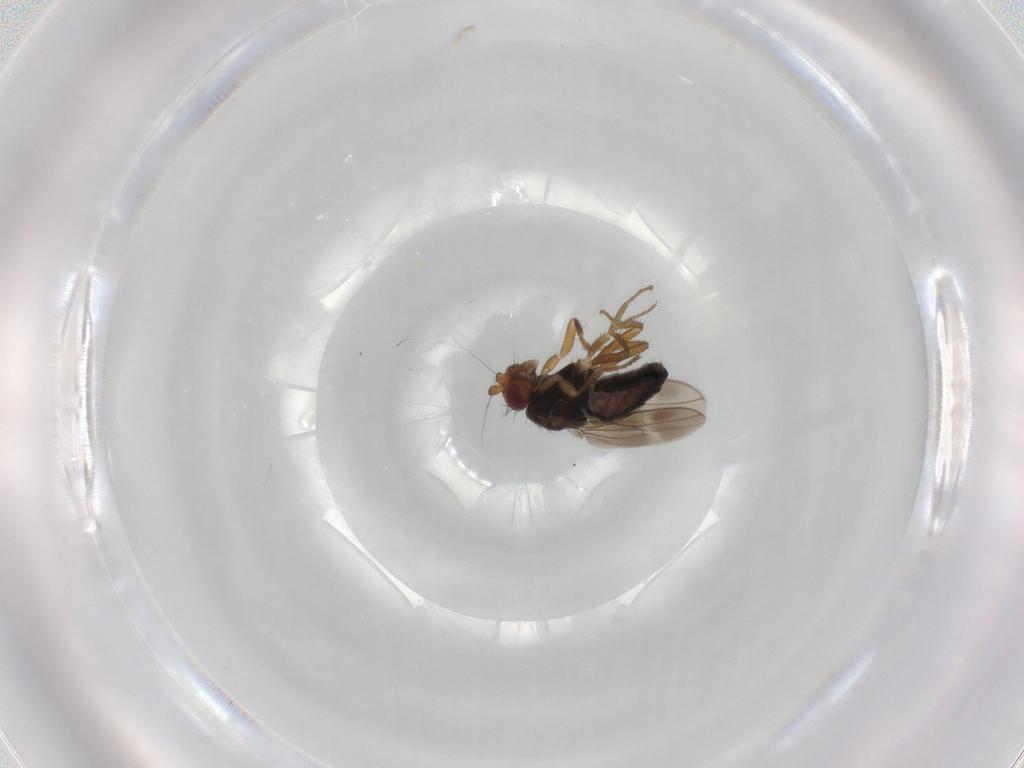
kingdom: Animalia
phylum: Arthropoda
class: Insecta
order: Diptera
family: Sphaeroceridae
